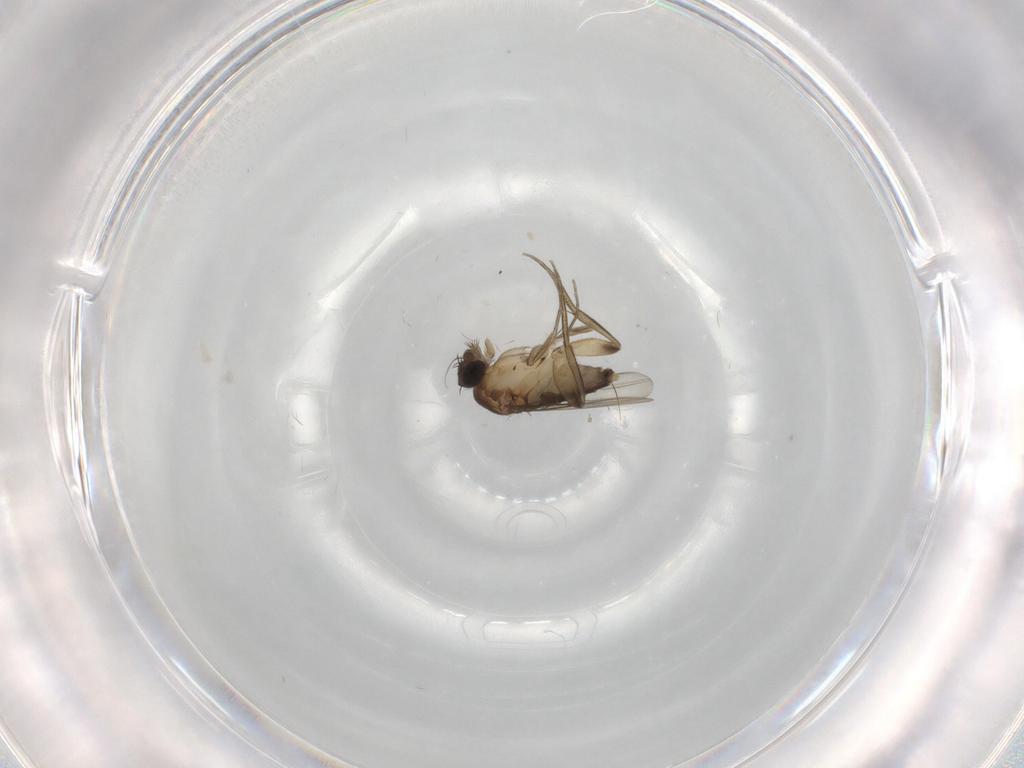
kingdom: Animalia
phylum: Arthropoda
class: Insecta
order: Diptera
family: Phoridae
